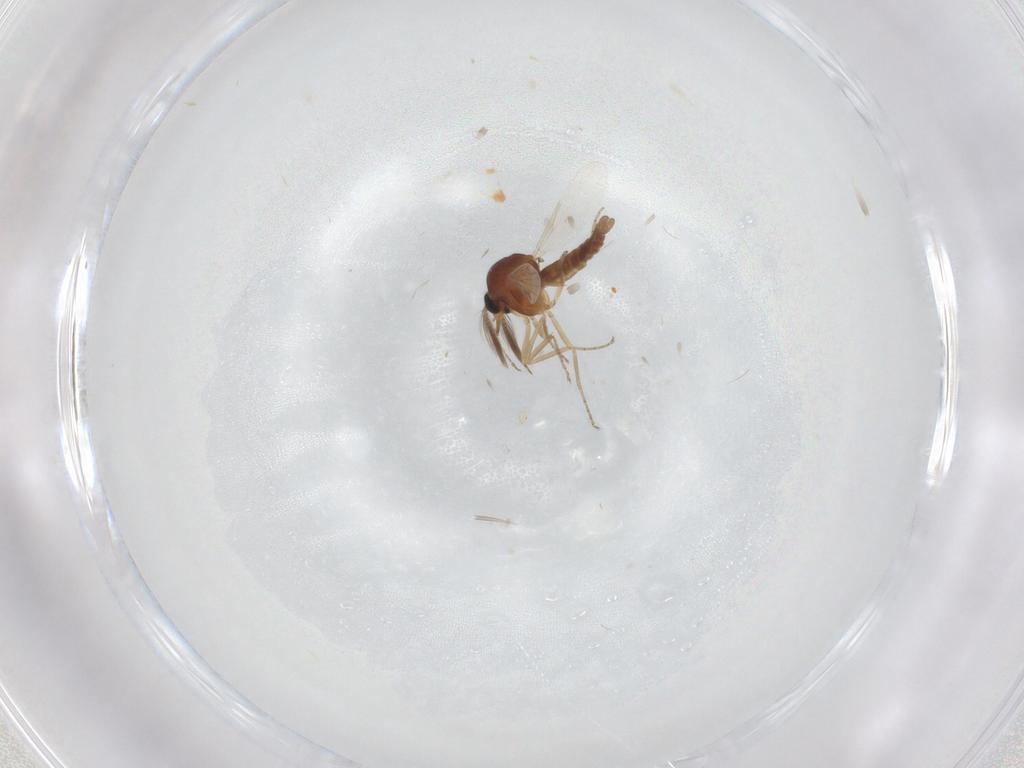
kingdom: Animalia
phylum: Arthropoda
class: Insecta
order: Diptera
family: Ceratopogonidae
